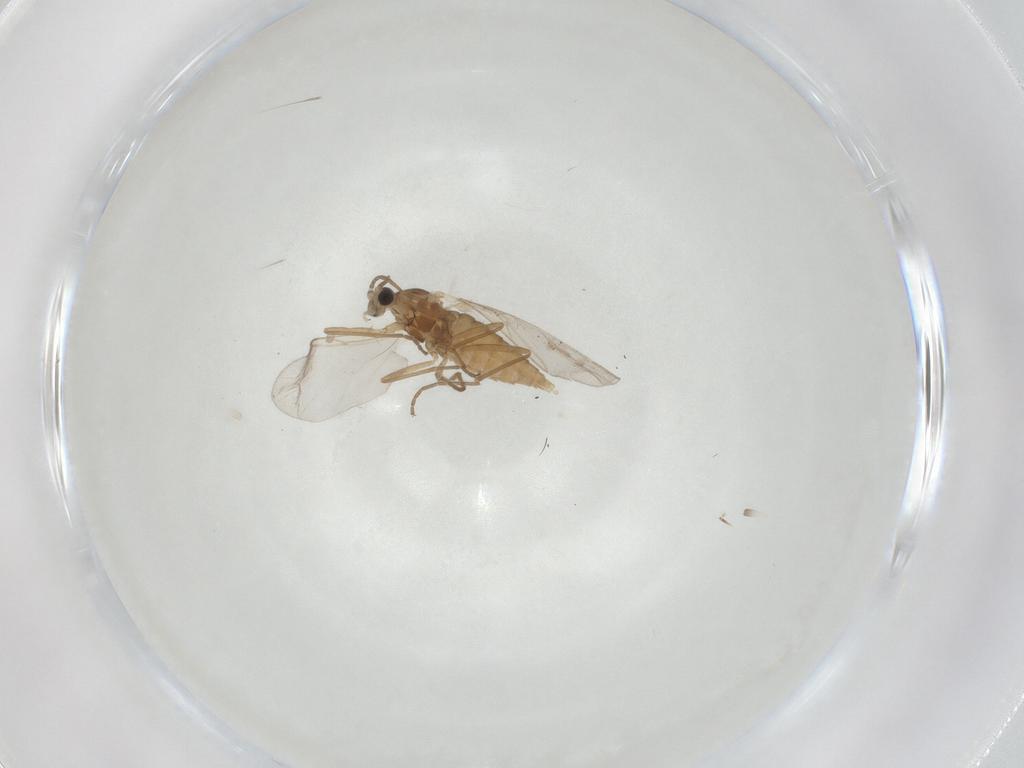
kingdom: Animalia
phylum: Arthropoda
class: Insecta
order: Diptera
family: Cecidomyiidae
